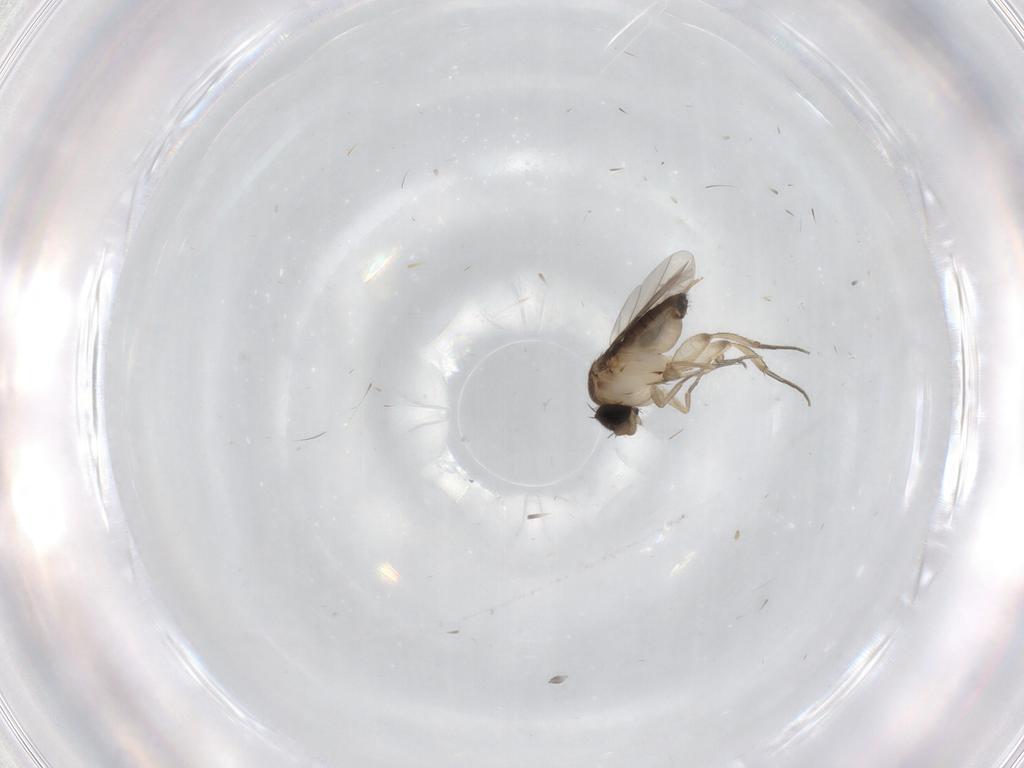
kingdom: Animalia
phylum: Arthropoda
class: Insecta
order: Diptera
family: Phoridae
